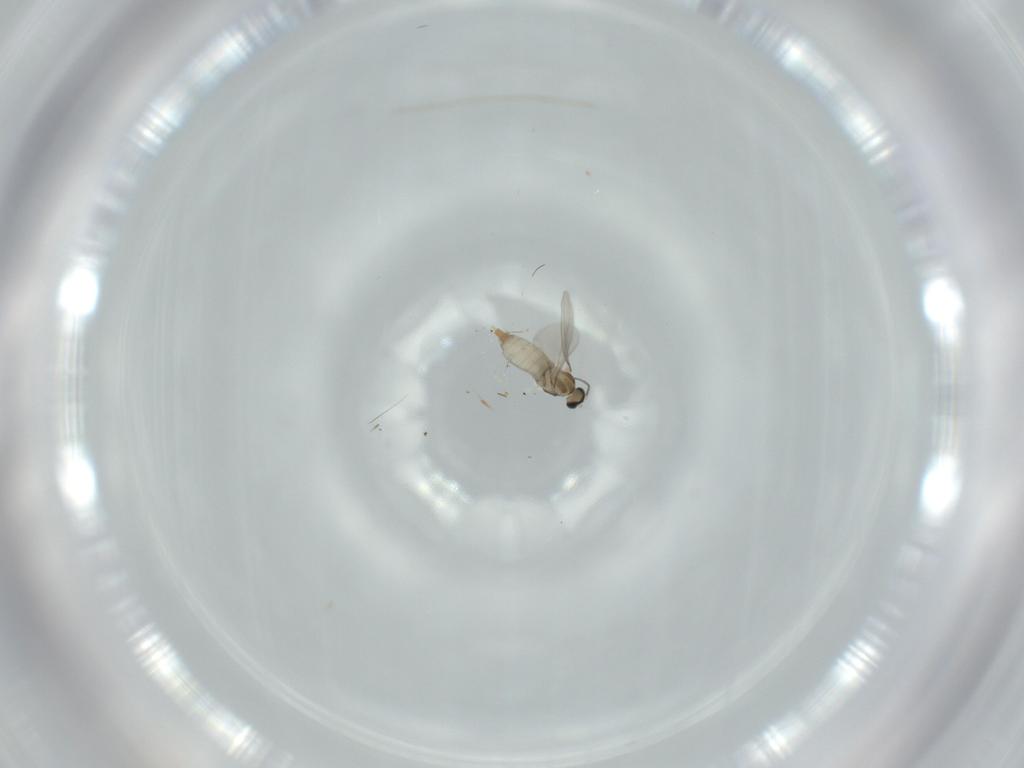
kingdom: Animalia
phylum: Arthropoda
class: Insecta
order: Diptera
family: Cecidomyiidae
